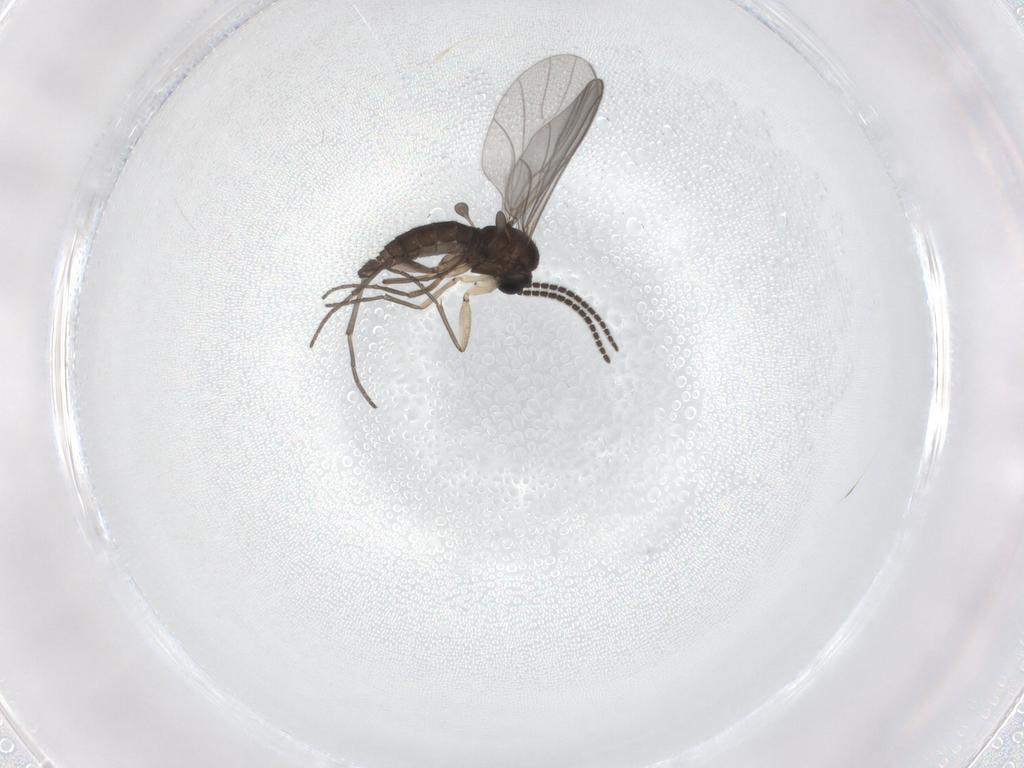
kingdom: Animalia
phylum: Arthropoda
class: Insecta
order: Diptera
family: Sciaridae
